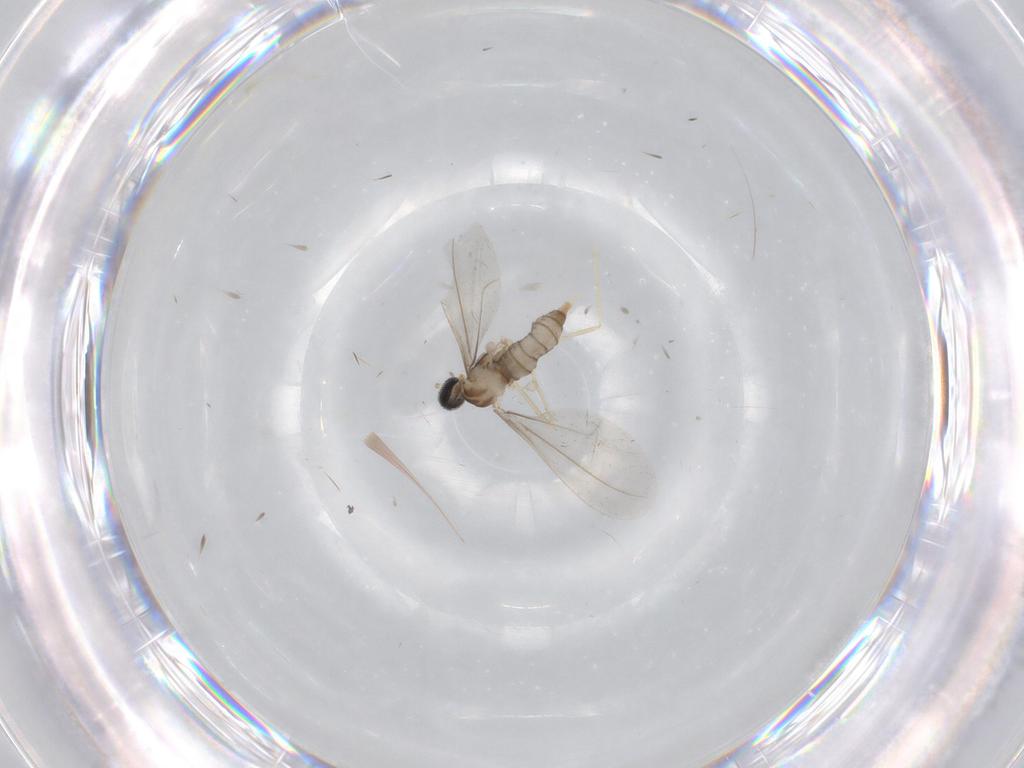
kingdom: Animalia
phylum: Arthropoda
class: Insecta
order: Diptera
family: Cecidomyiidae
